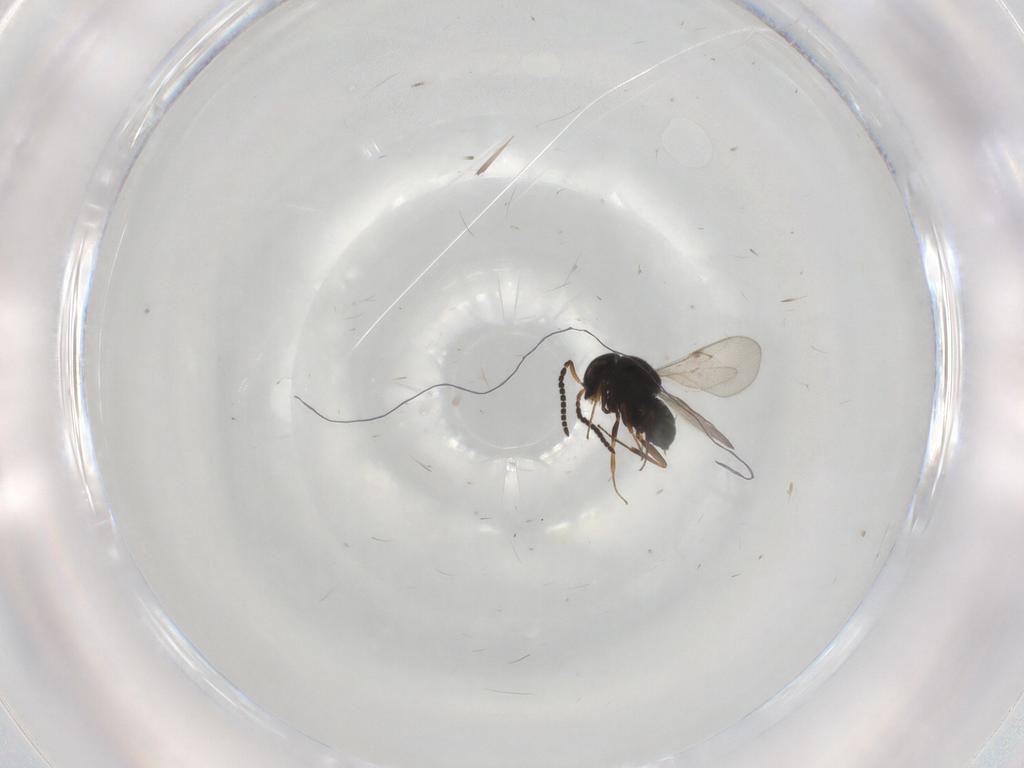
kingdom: Animalia
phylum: Arthropoda
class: Insecta
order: Hymenoptera
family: Scelionidae
